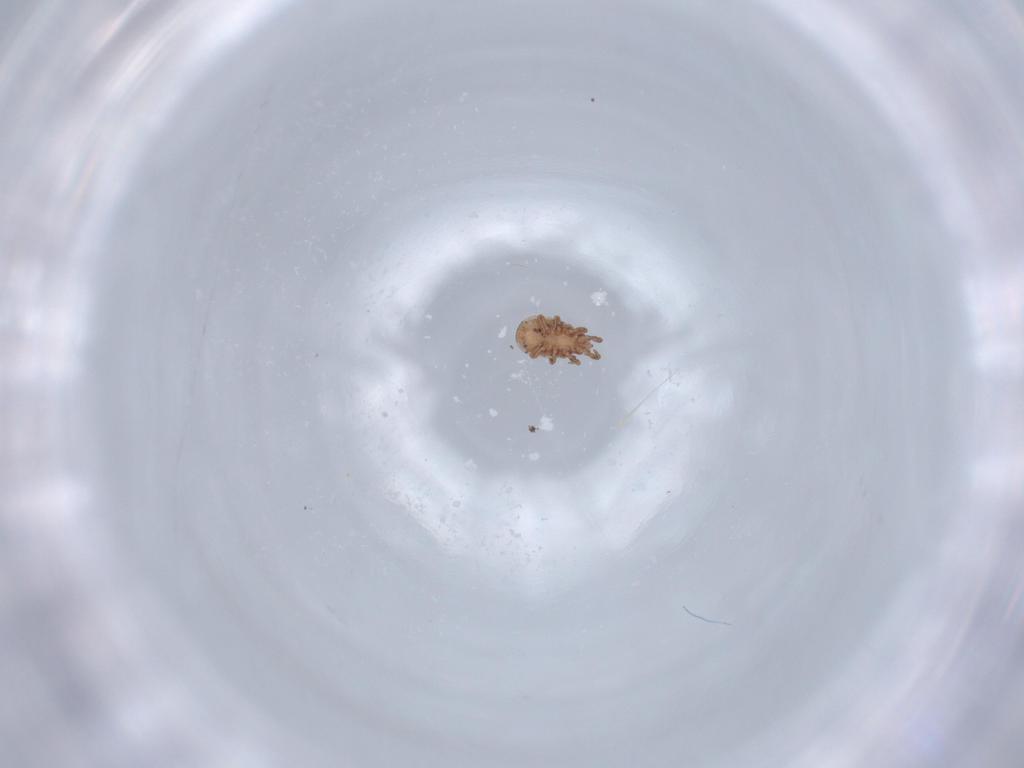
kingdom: Animalia
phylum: Arthropoda
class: Arachnida
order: Mesostigmata
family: Dinychidae
